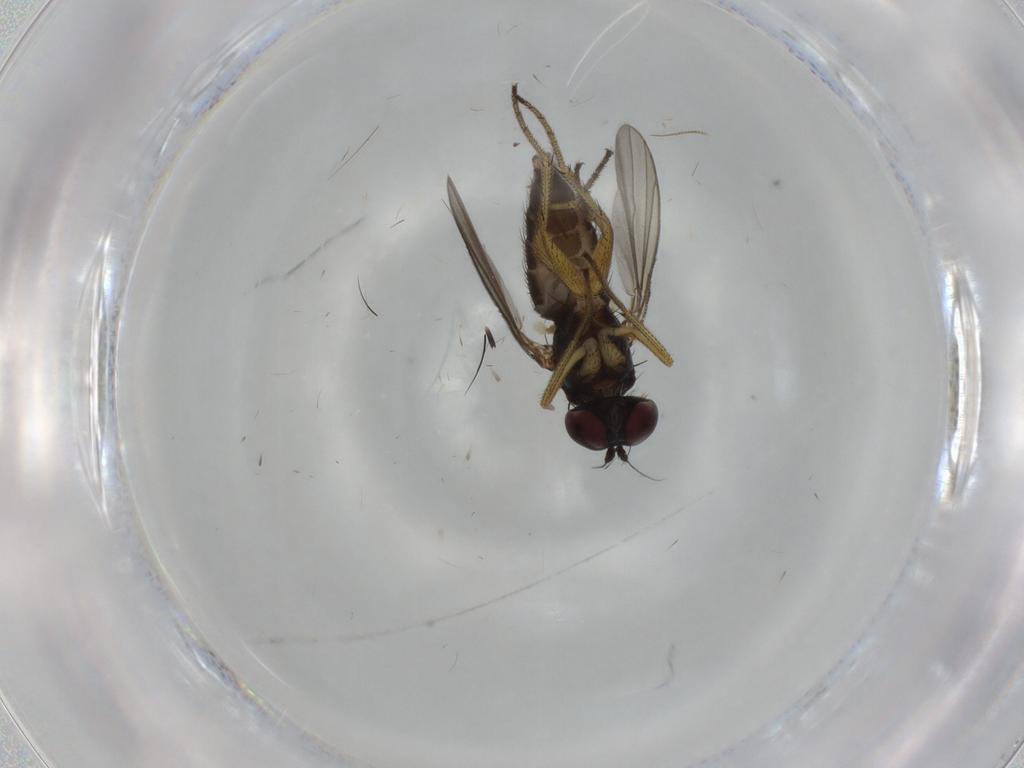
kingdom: Animalia
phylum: Arthropoda
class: Insecta
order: Diptera
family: Dolichopodidae
